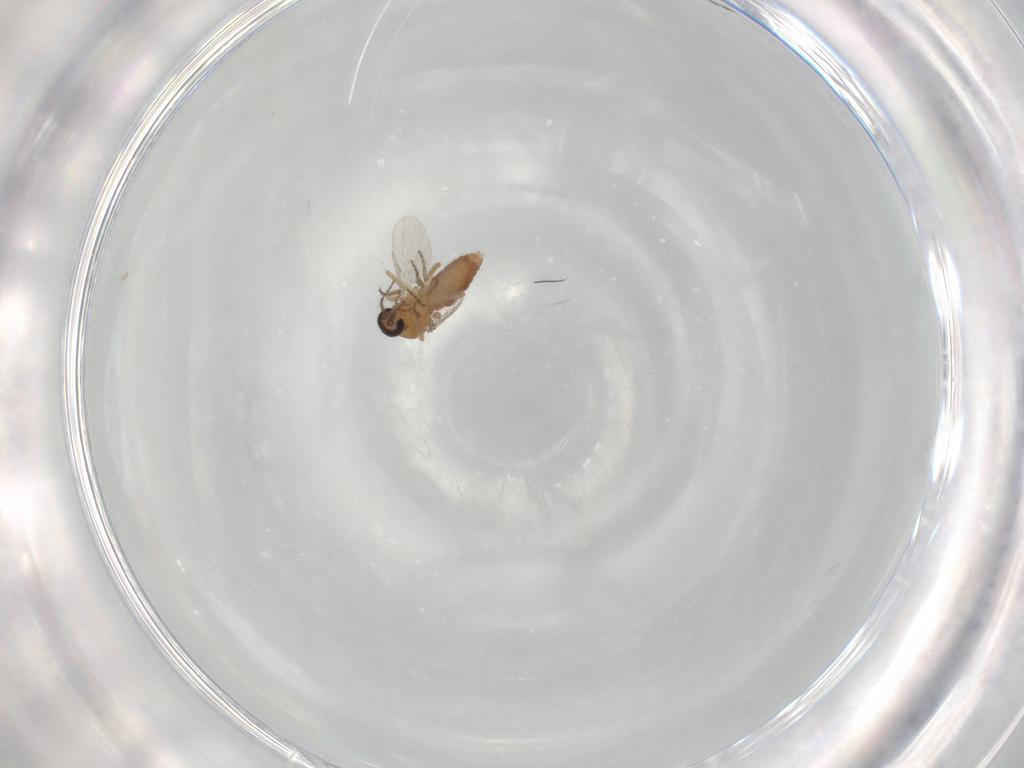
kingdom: Animalia
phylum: Arthropoda
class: Insecta
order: Diptera
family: Ceratopogonidae
